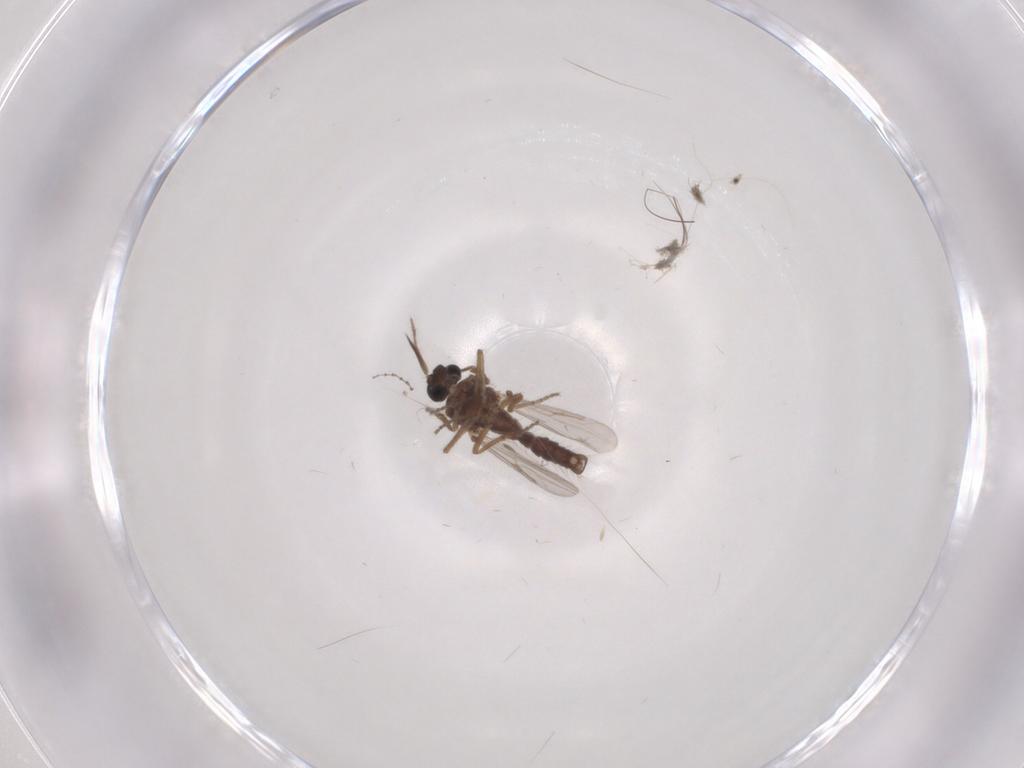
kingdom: Animalia
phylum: Arthropoda
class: Insecta
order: Diptera
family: Ceratopogonidae
